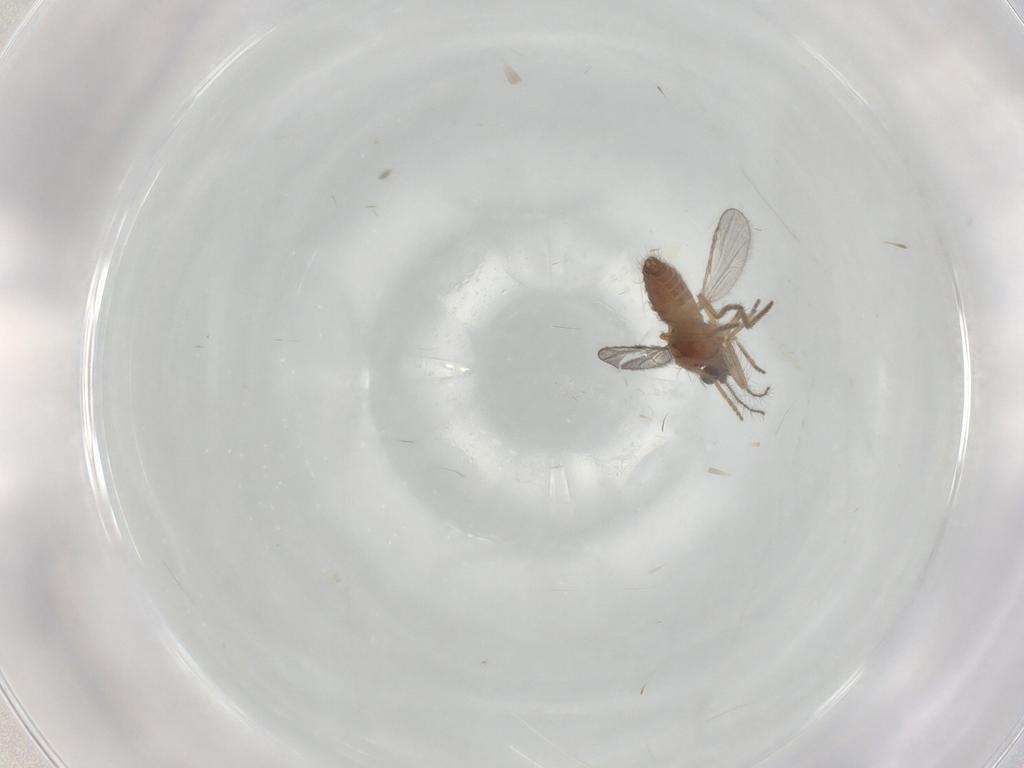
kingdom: Animalia
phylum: Arthropoda
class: Insecta
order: Diptera
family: Ceratopogonidae
